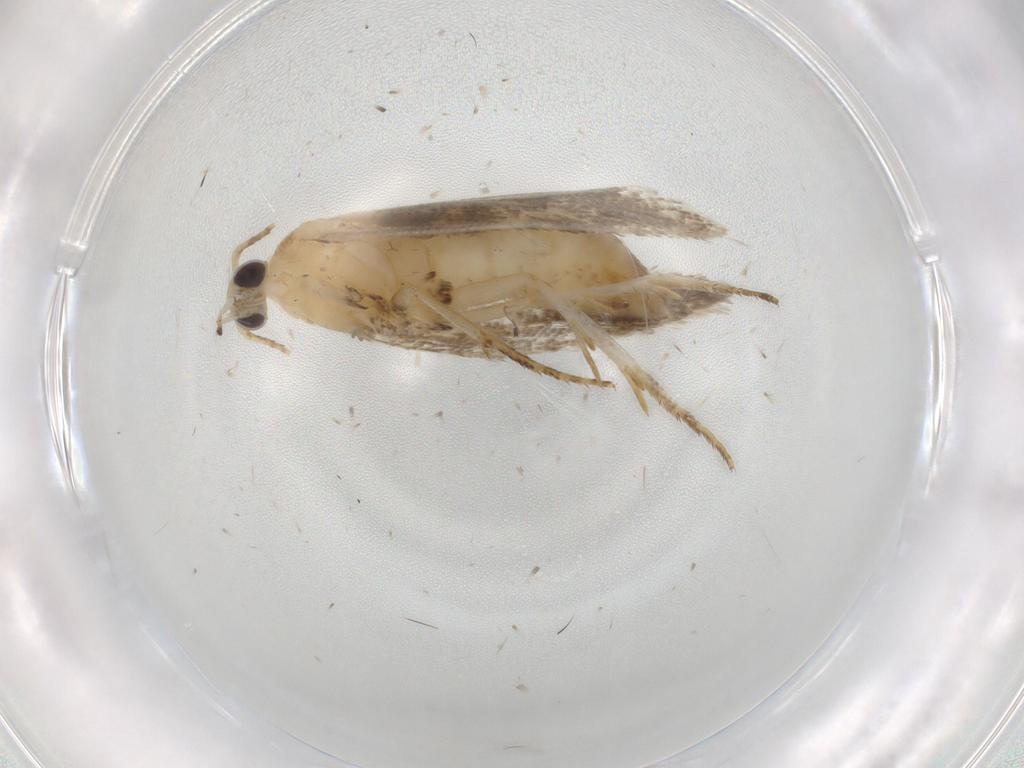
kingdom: Animalia
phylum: Arthropoda
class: Insecta
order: Lepidoptera
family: Ypsolophidae
